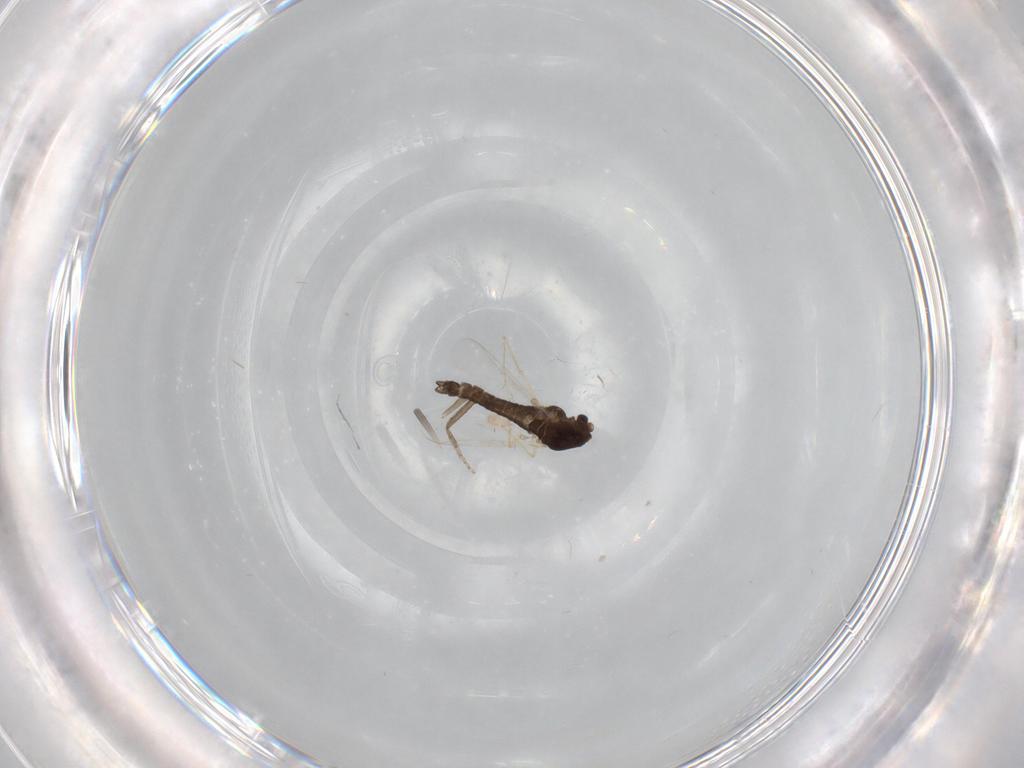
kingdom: Animalia
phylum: Arthropoda
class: Insecta
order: Diptera
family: Chironomidae
